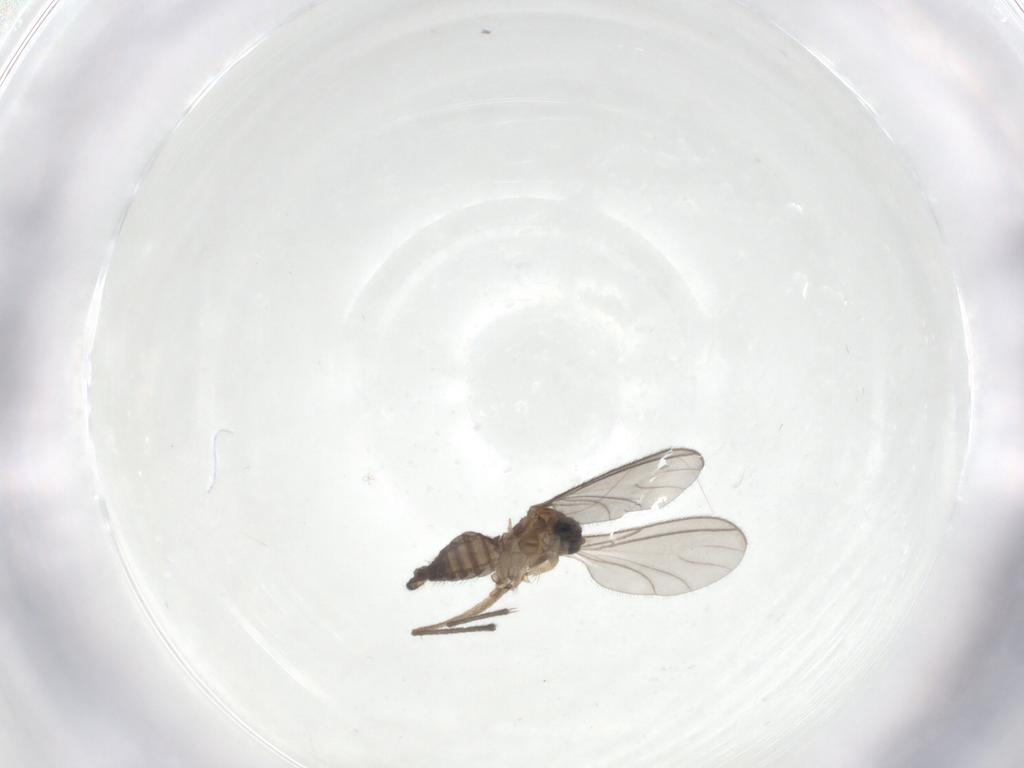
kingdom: Animalia
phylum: Arthropoda
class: Insecta
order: Diptera
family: Sciaridae
